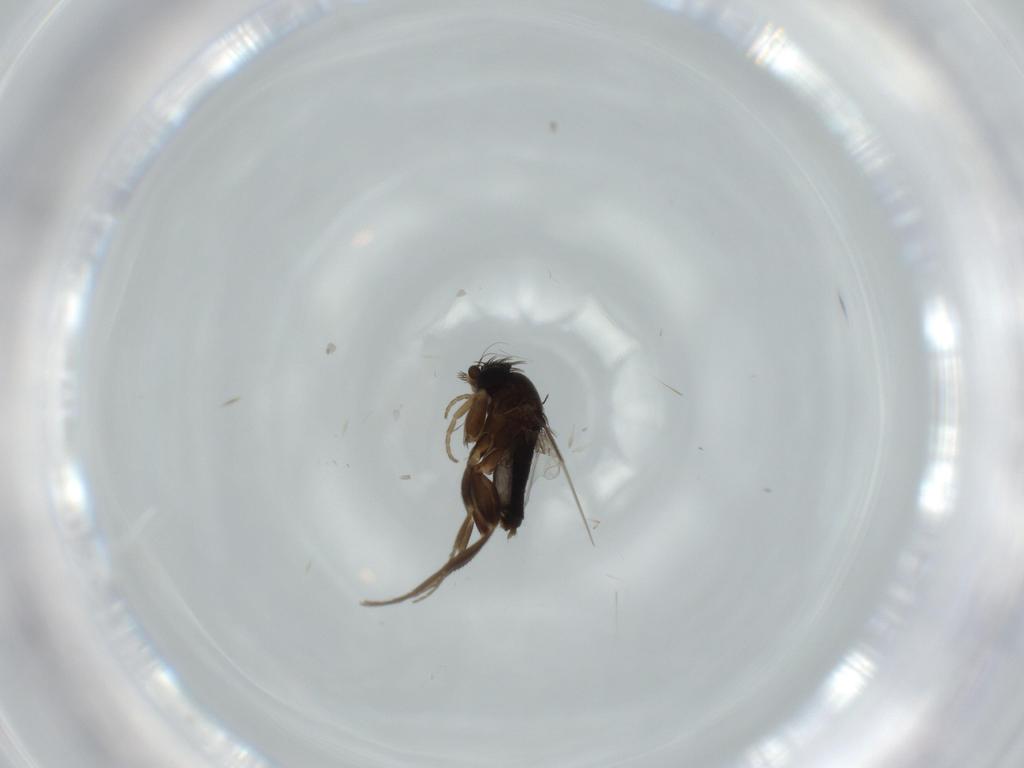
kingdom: Animalia
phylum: Arthropoda
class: Insecta
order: Diptera
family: Phoridae
